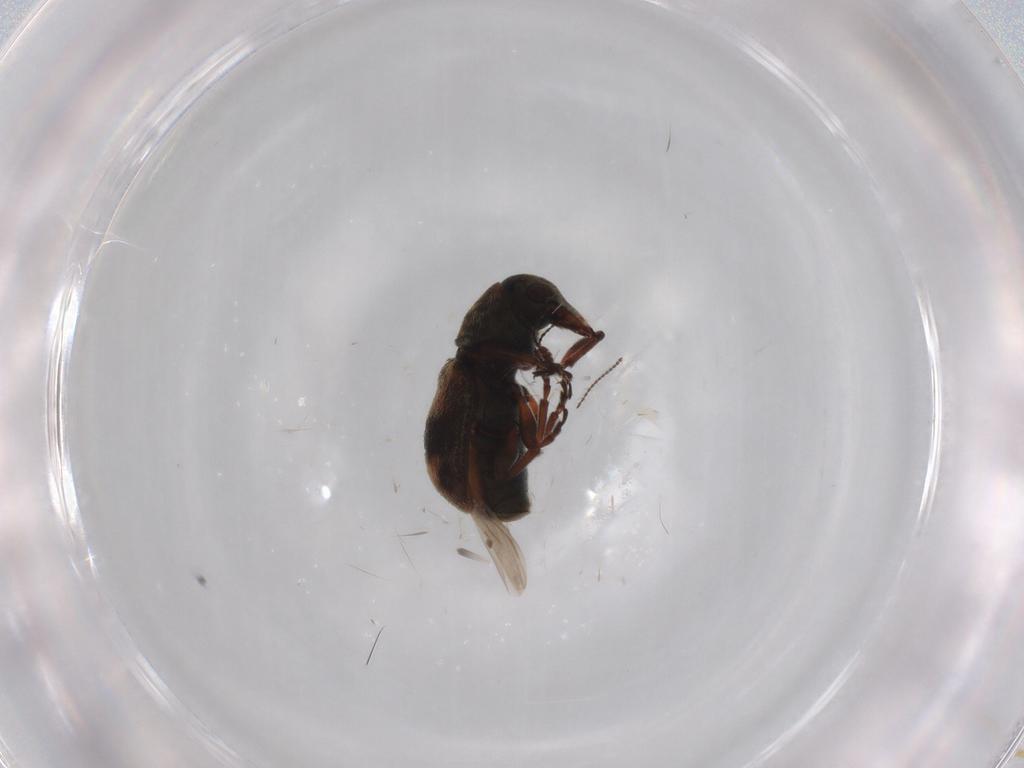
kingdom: Animalia
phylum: Arthropoda
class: Insecta
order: Coleoptera
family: Anthribidae
